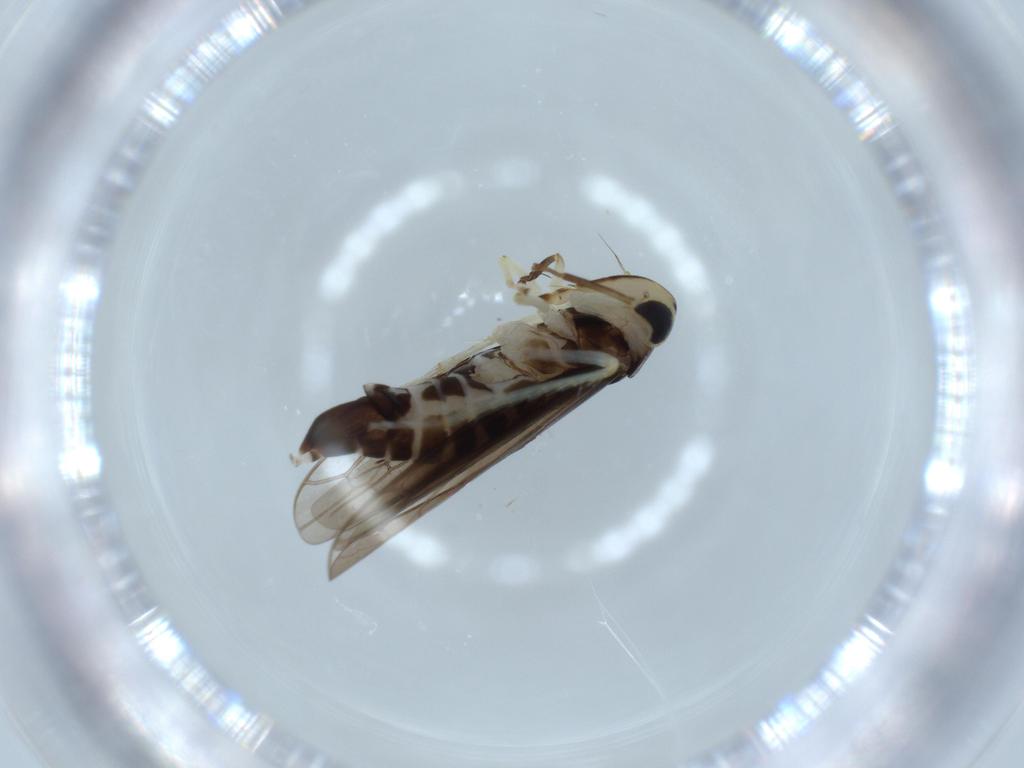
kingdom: Animalia
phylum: Arthropoda
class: Insecta
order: Hemiptera
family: Cicadellidae
